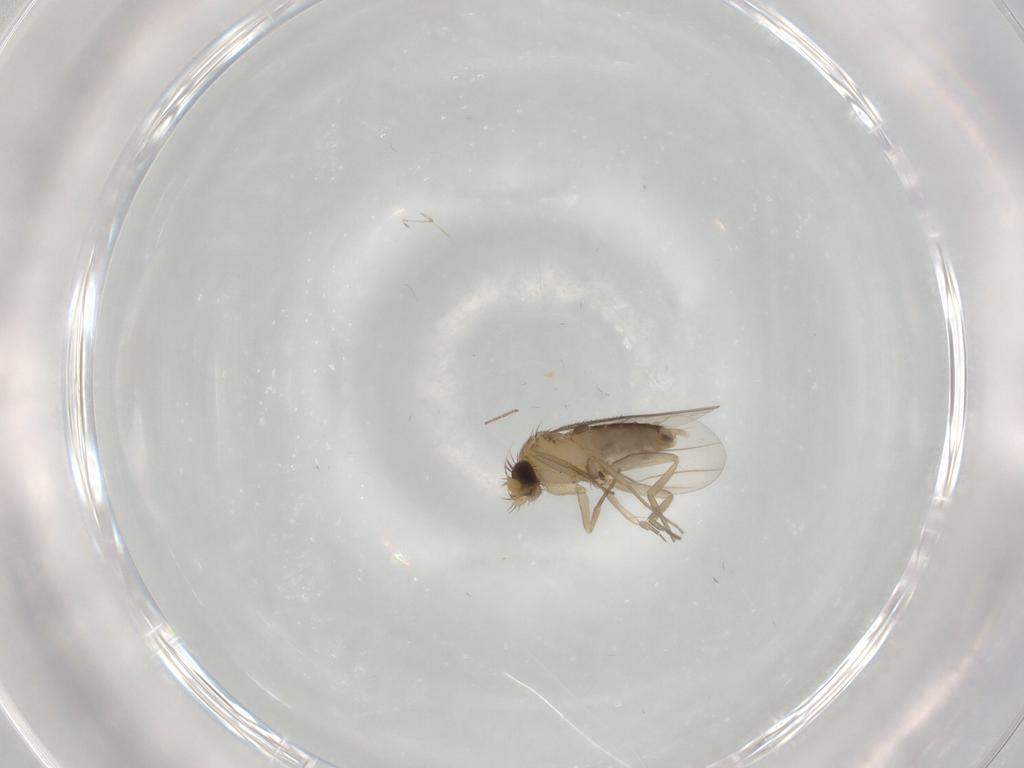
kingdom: Animalia
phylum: Arthropoda
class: Insecta
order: Diptera
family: Phoridae
